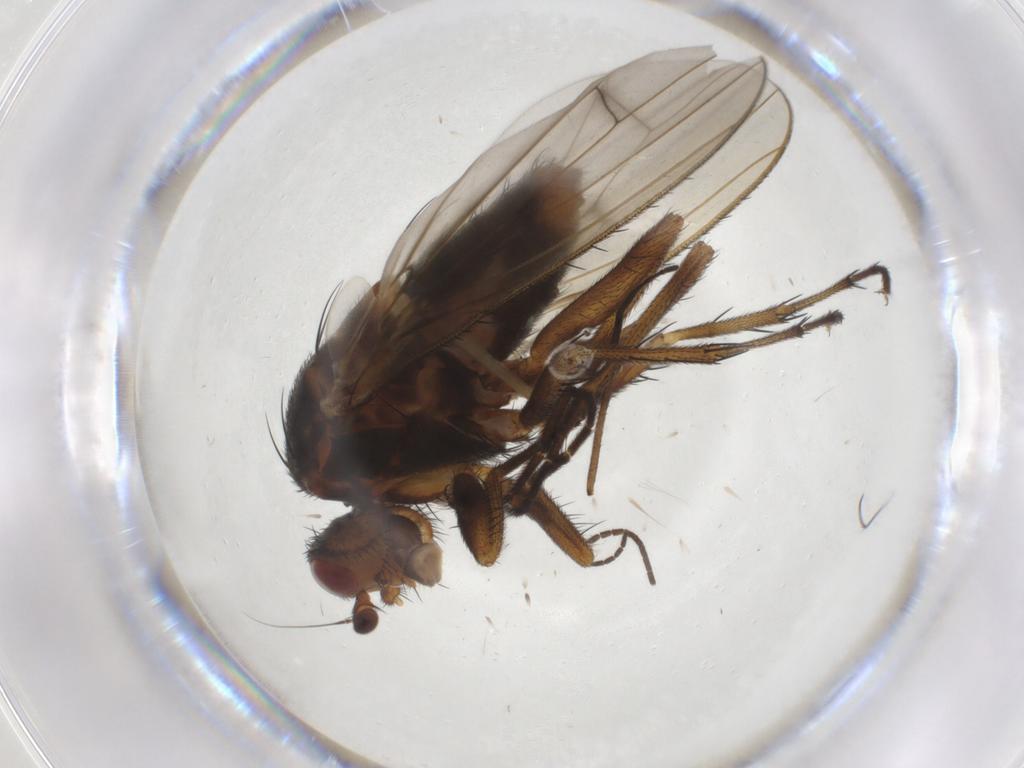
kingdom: Animalia
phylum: Arthropoda
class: Insecta
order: Diptera
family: Heleomyzidae
